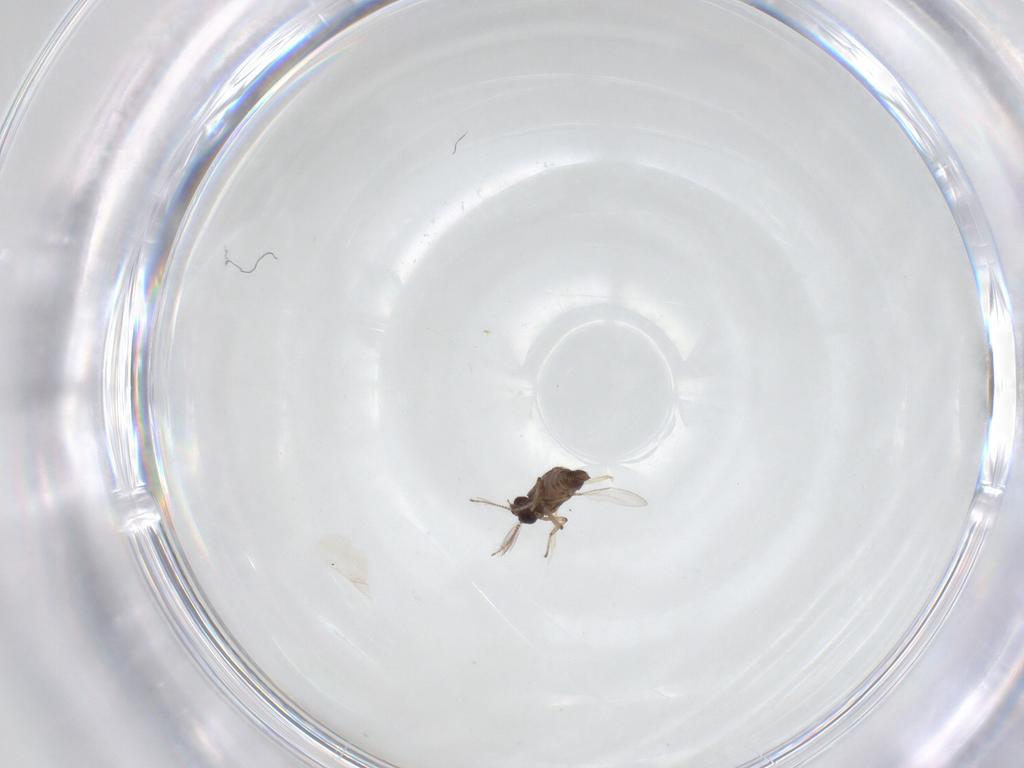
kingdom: Animalia
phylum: Arthropoda
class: Insecta
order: Diptera
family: Ceratopogonidae
